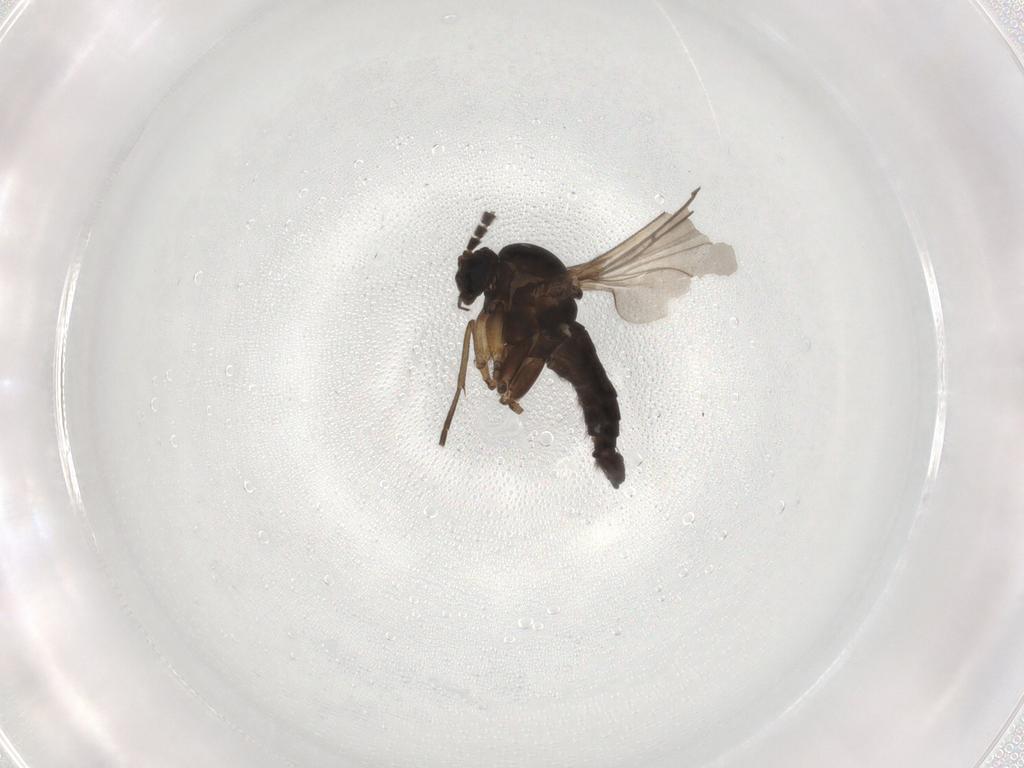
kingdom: Animalia
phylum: Arthropoda
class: Insecta
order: Diptera
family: Sciaridae
